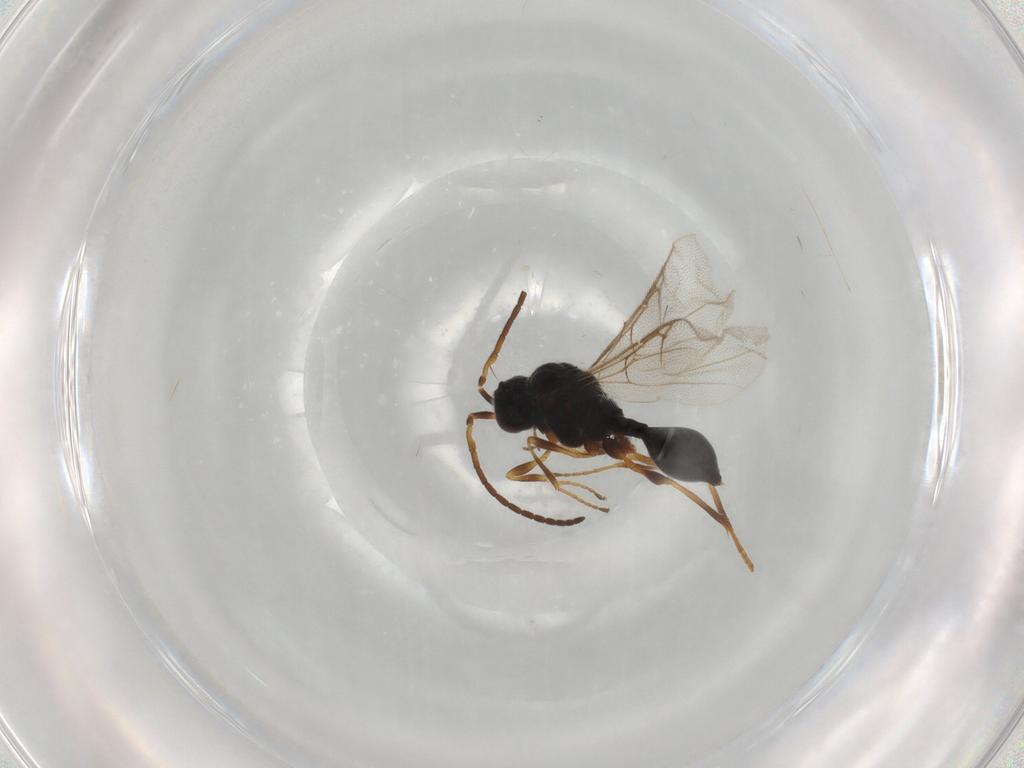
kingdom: Animalia
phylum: Arthropoda
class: Insecta
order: Hymenoptera
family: Diapriidae
